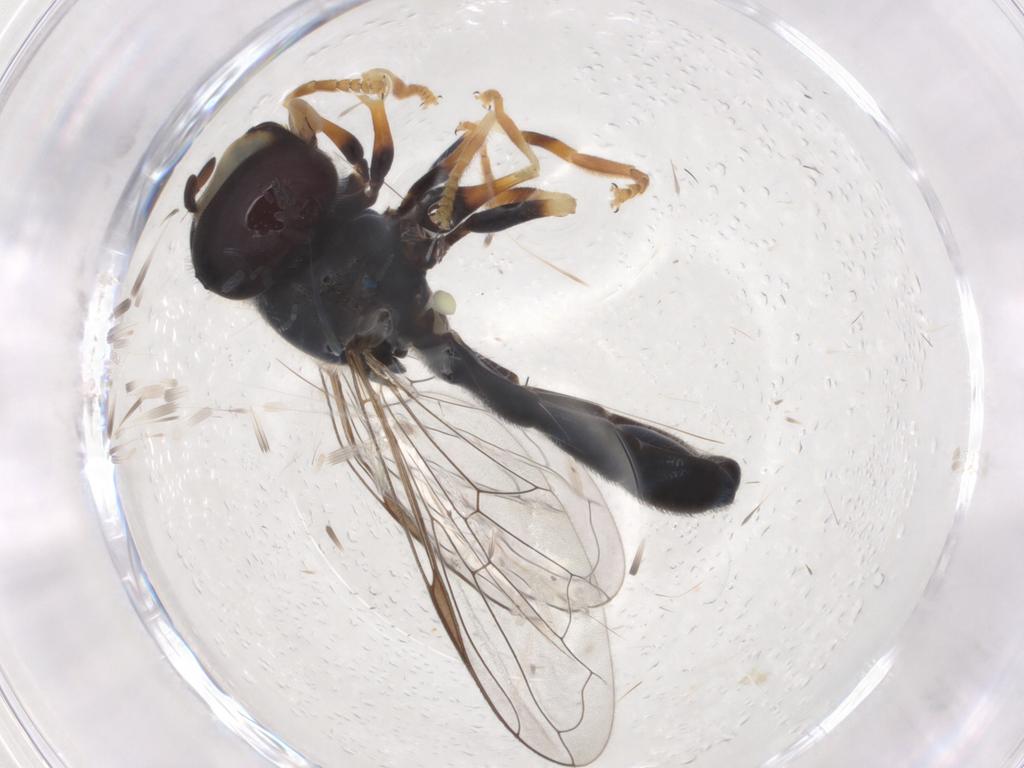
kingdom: Animalia
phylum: Arthropoda
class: Insecta
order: Diptera
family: Syrphidae
